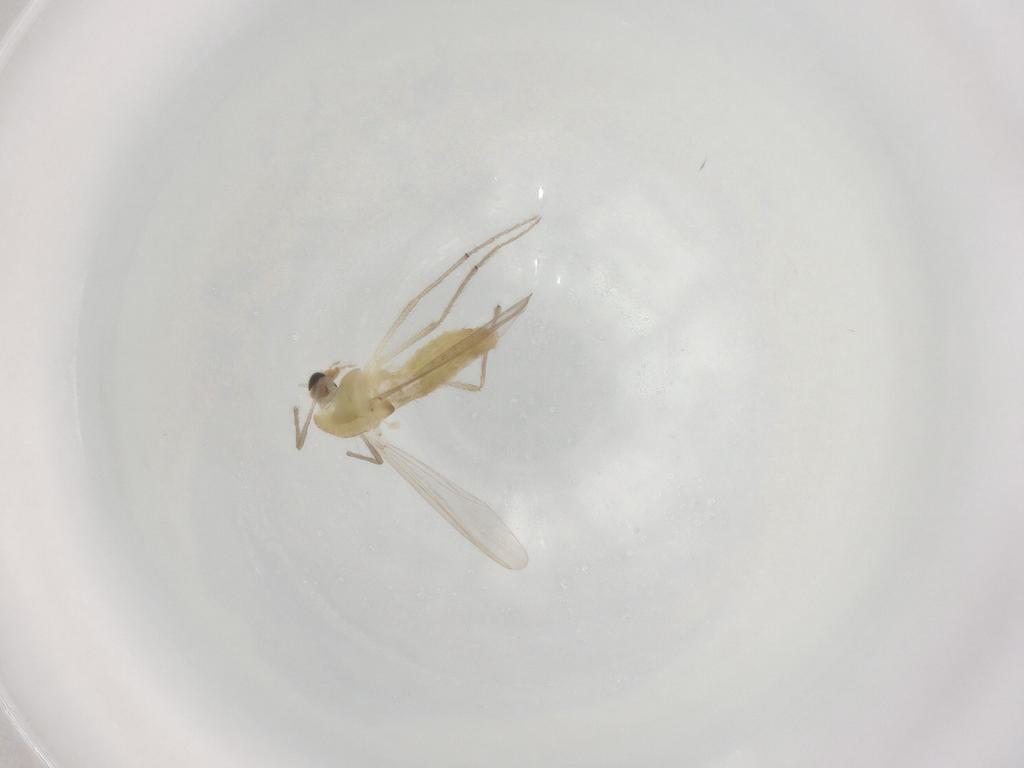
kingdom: Animalia
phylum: Arthropoda
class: Insecta
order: Diptera
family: Chironomidae
